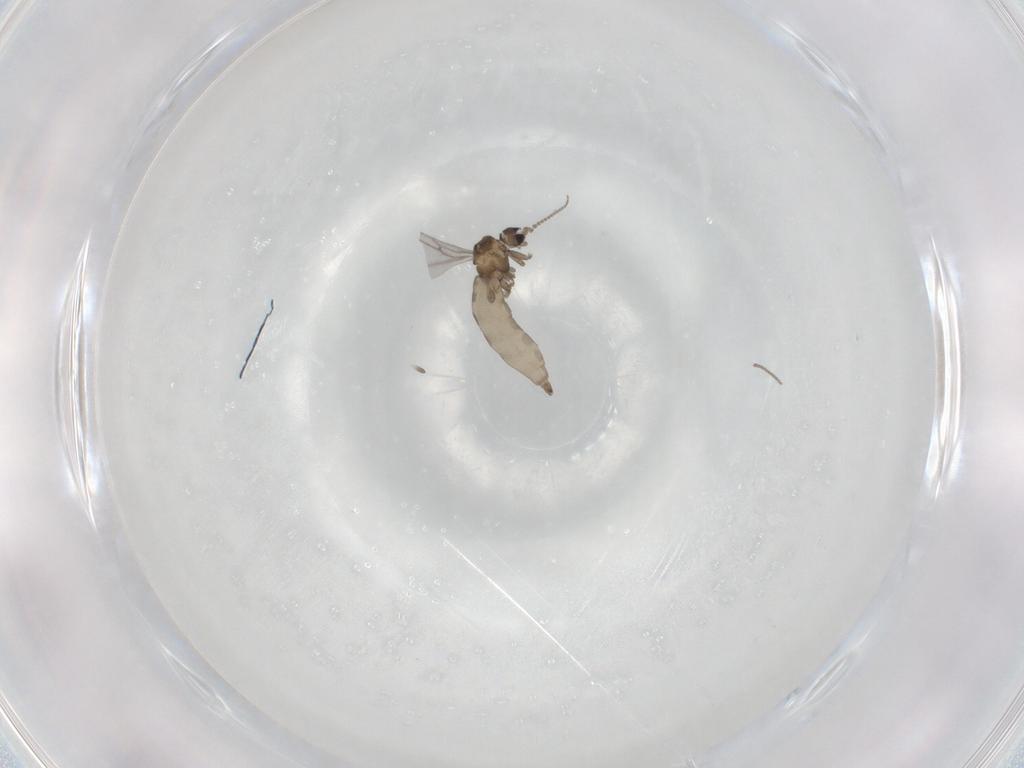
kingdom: Animalia
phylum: Arthropoda
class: Insecta
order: Diptera
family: Sciaridae
